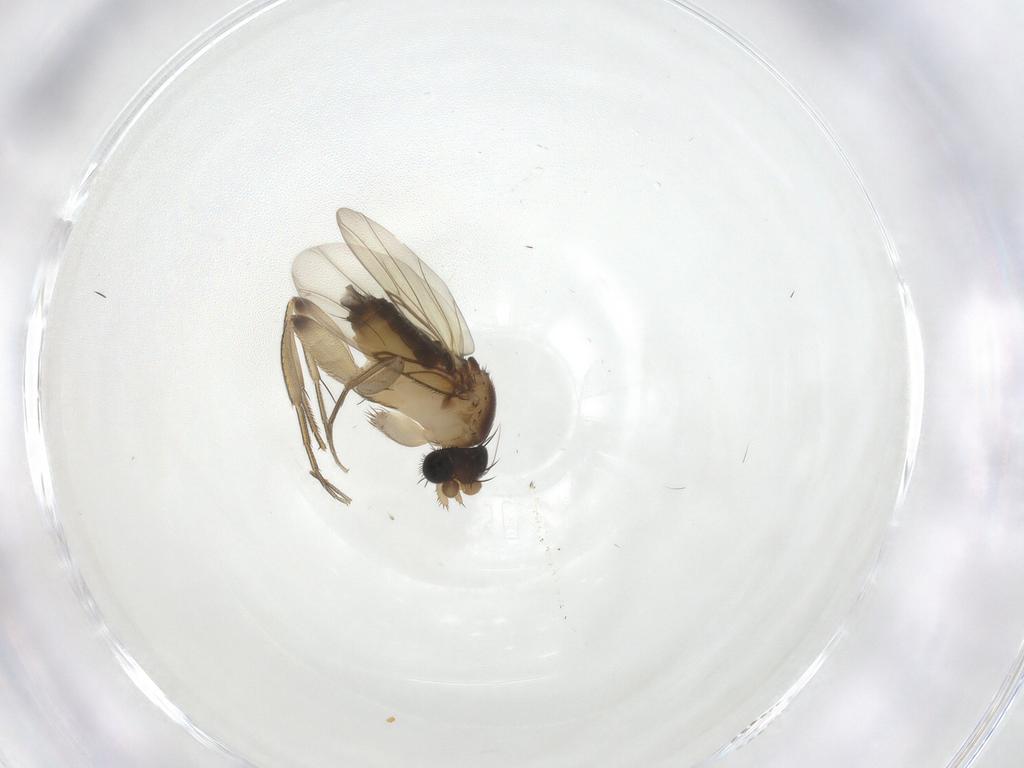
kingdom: Animalia
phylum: Arthropoda
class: Insecta
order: Diptera
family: Phoridae
